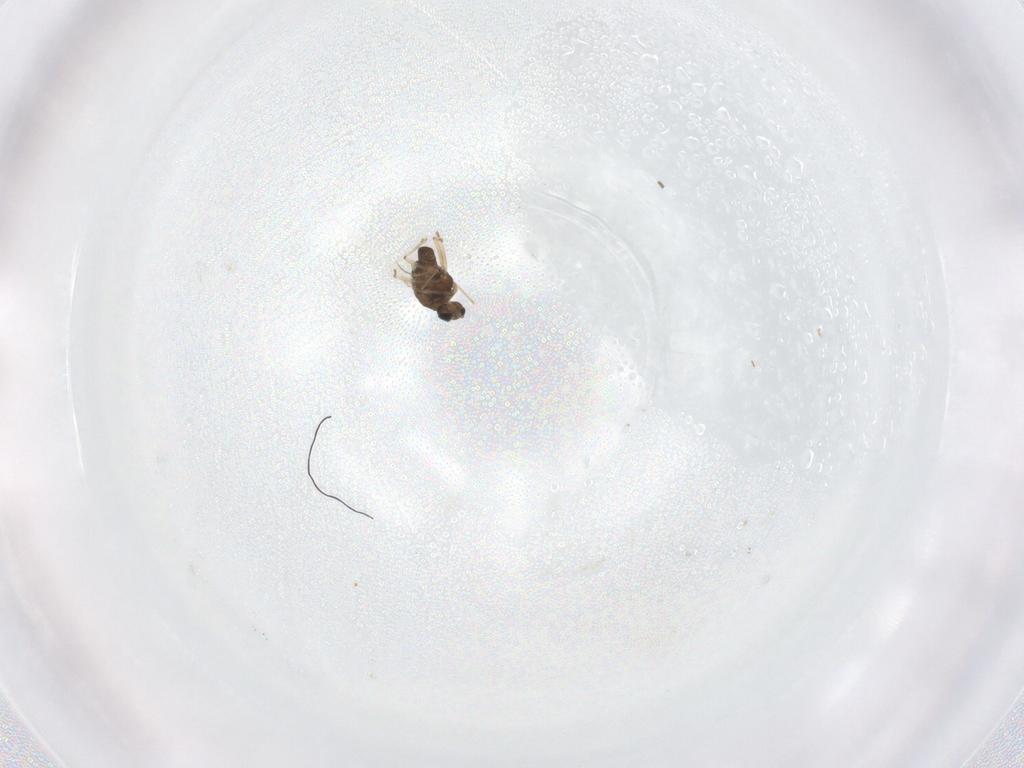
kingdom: Animalia
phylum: Arthropoda
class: Insecta
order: Diptera
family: Chironomidae
